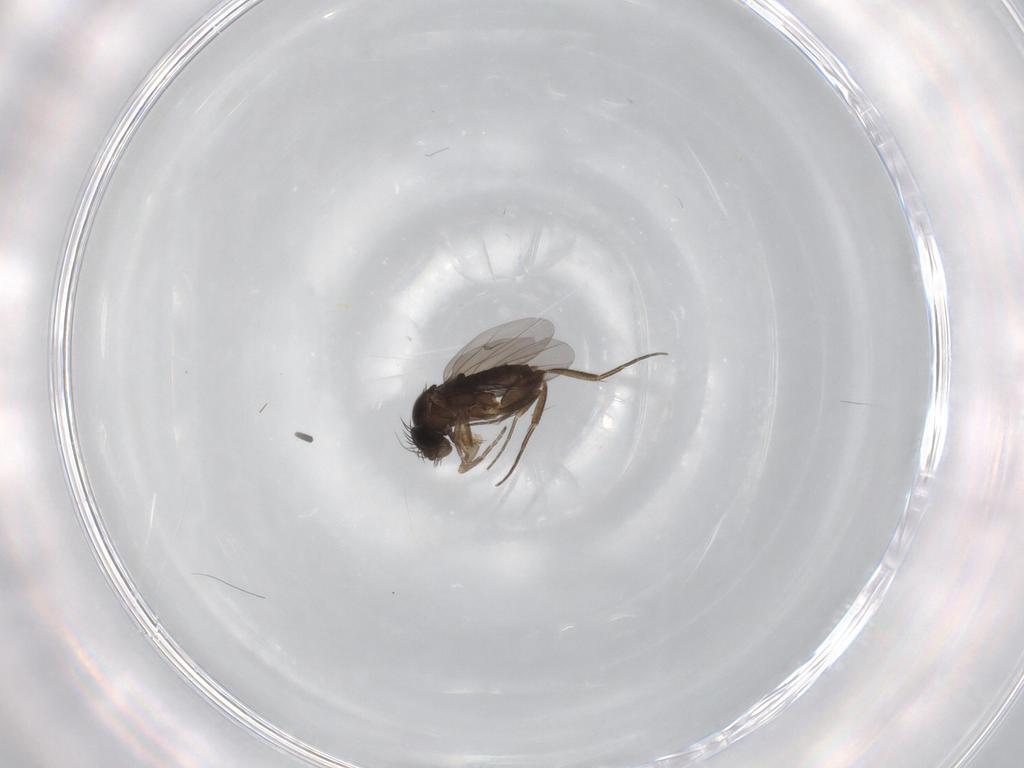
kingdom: Animalia
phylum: Arthropoda
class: Insecta
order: Diptera
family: Phoridae
